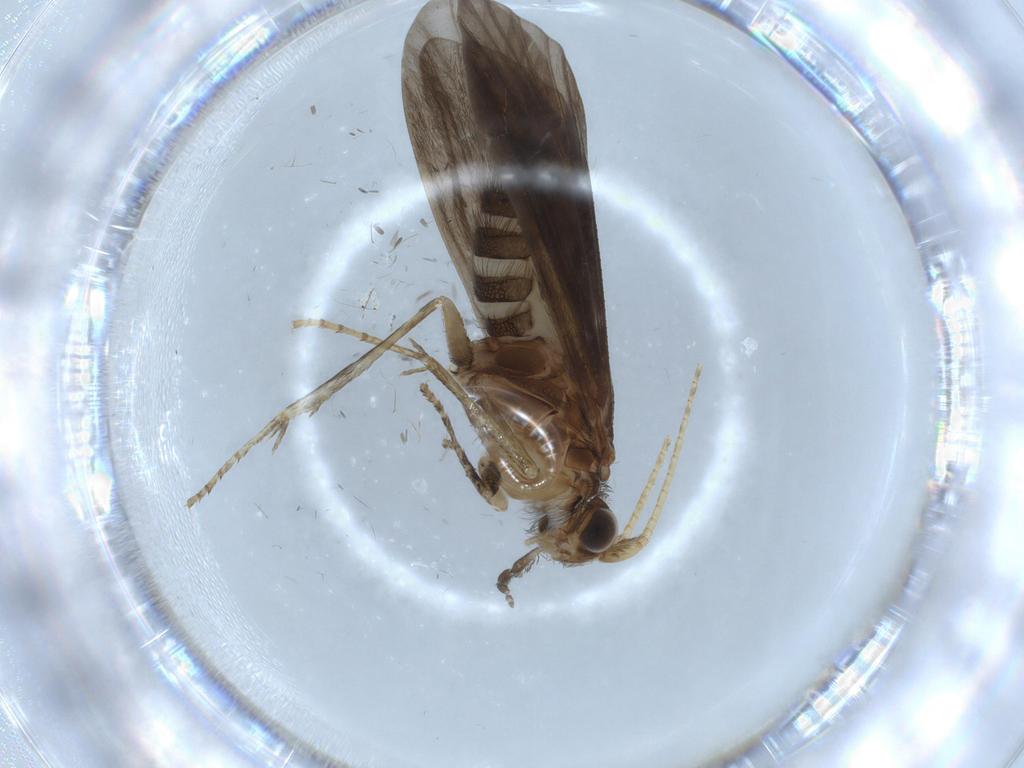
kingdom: Animalia
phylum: Arthropoda
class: Insecta
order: Trichoptera
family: Helicopsychidae
